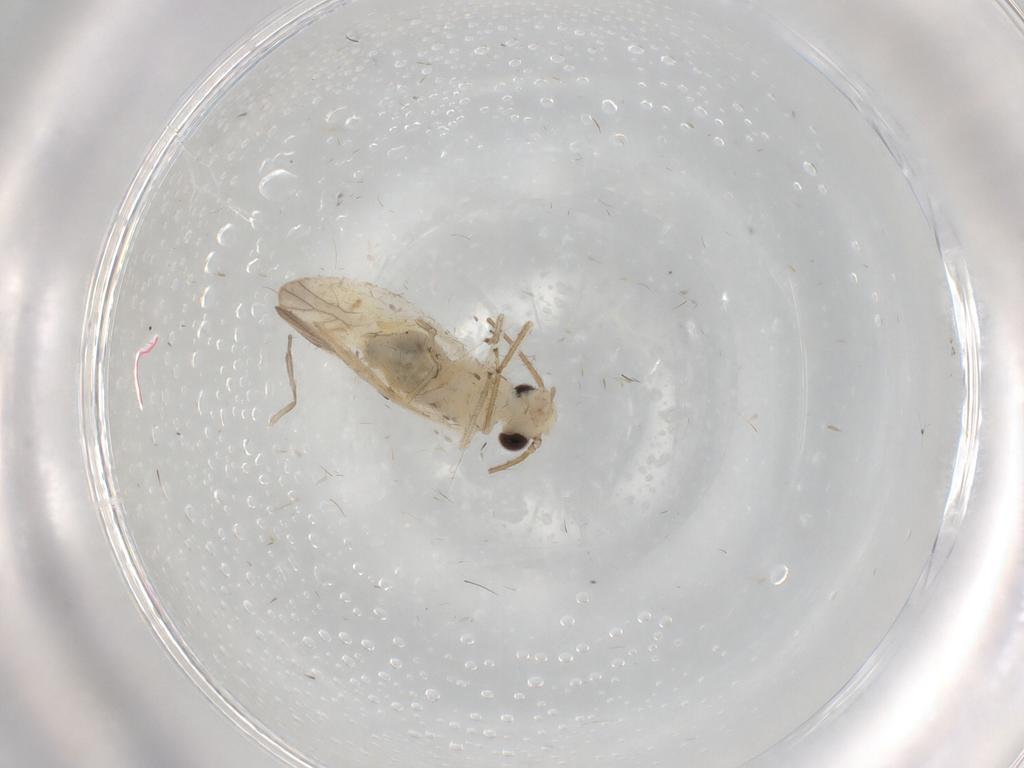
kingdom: Animalia
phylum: Arthropoda
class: Insecta
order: Psocodea
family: Caeciliusidae
